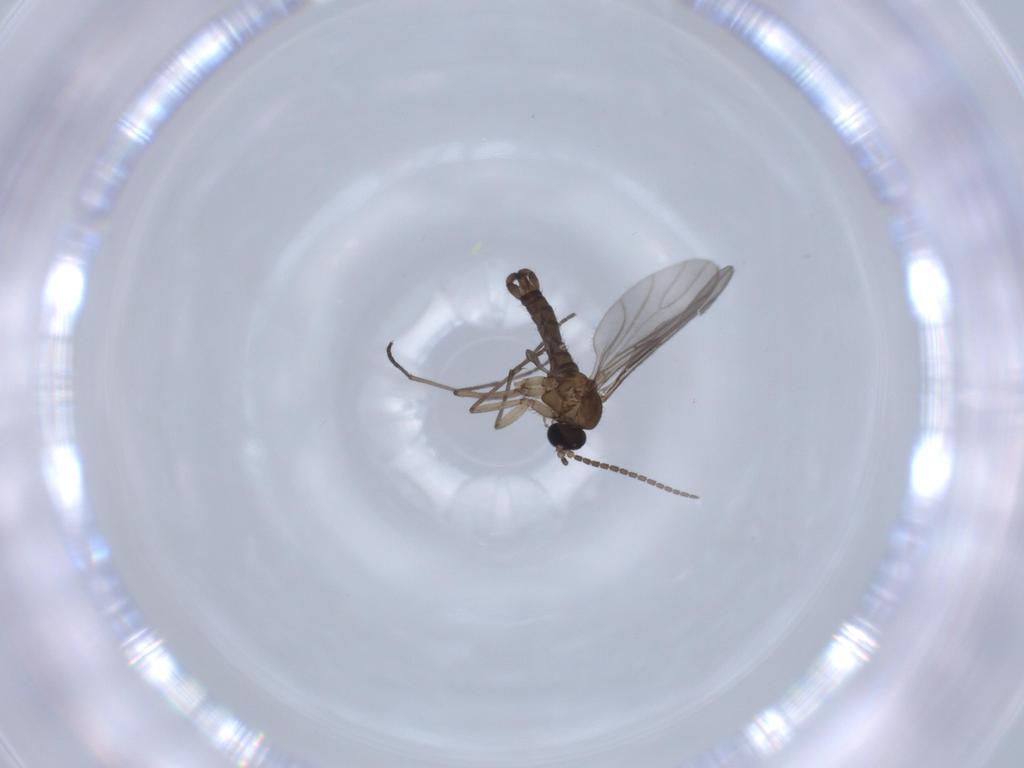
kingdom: Animalia
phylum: Arthropoda
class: Insecta
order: Diptera
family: Sciaridae
